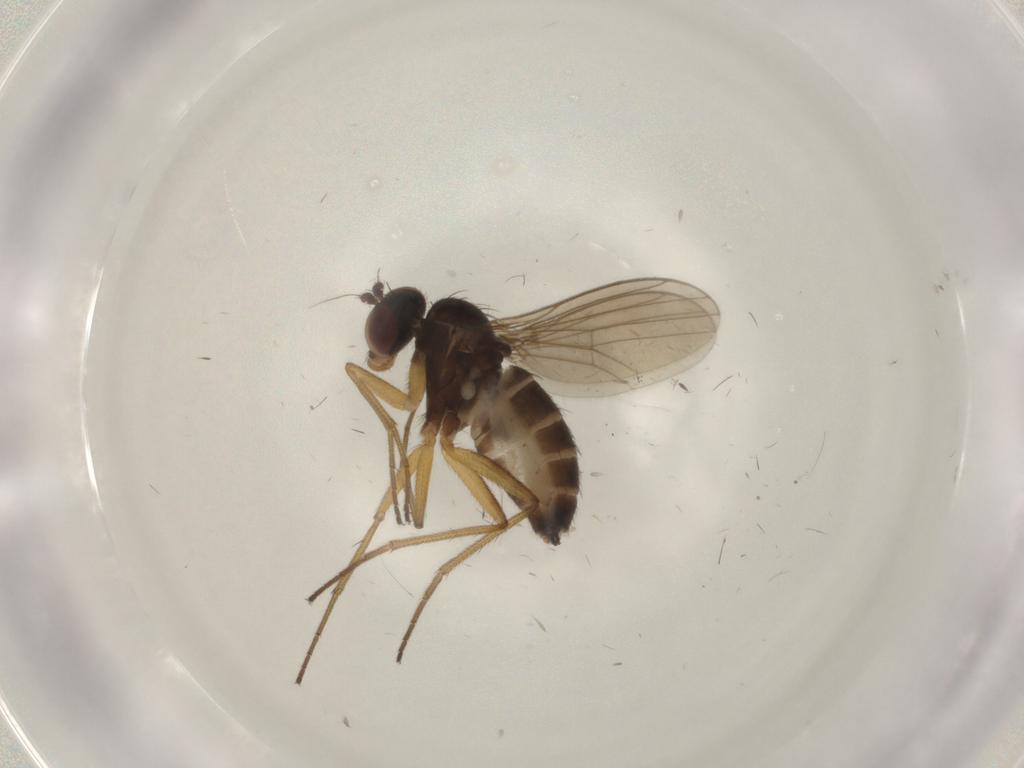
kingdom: Animalia
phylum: Arthropoda
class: Insecta
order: Diptera
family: Dolichopodidae
